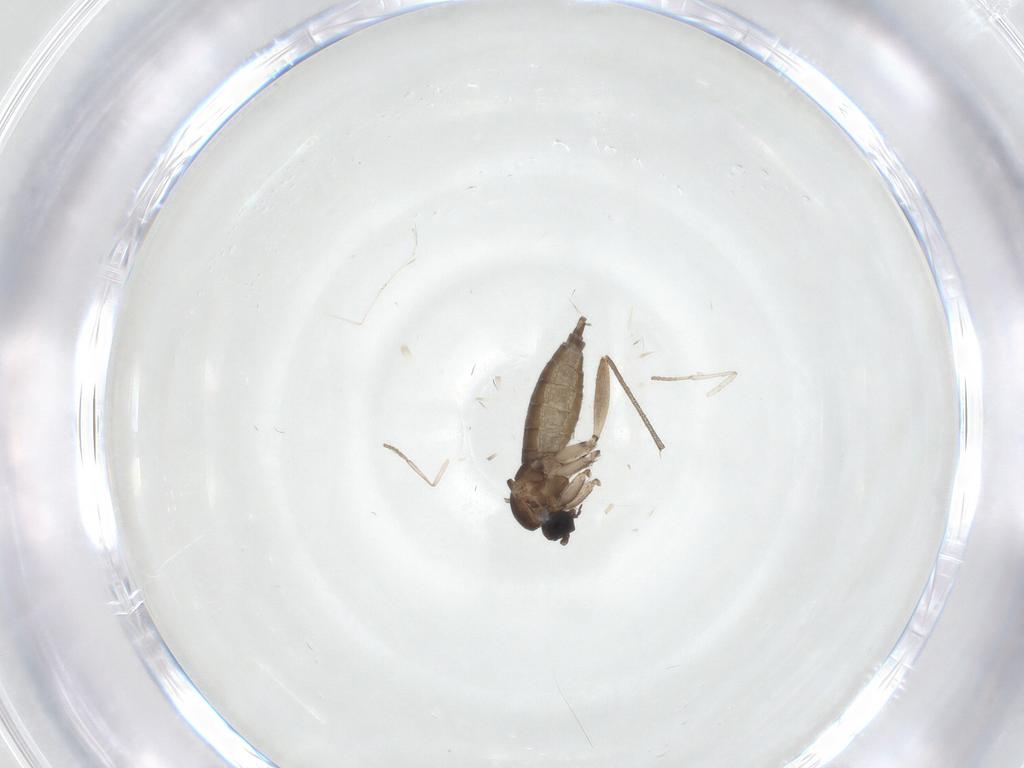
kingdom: Animalia
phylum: Arthropoda
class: Insecta
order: Diptera
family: Sciaridae
